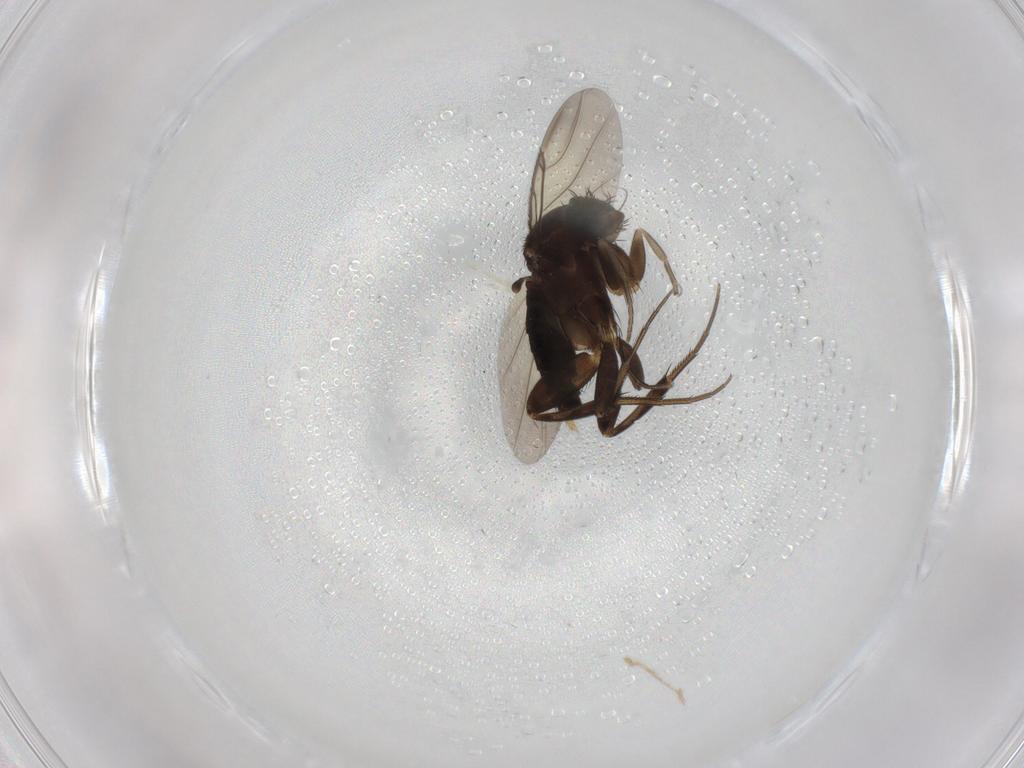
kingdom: Animalia
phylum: Arthropoda
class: Insecta
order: Diptera
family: Phoridae
